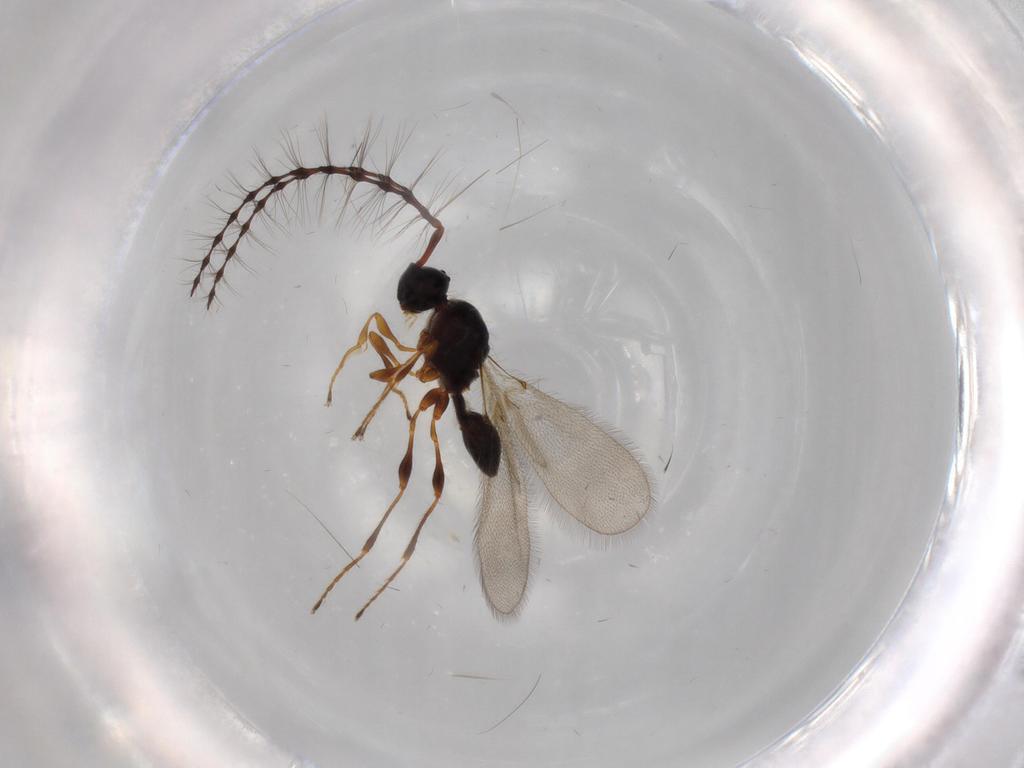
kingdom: Animalia
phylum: Arthropoda
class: Insecta
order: Hymenoptera
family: Diapriidae
